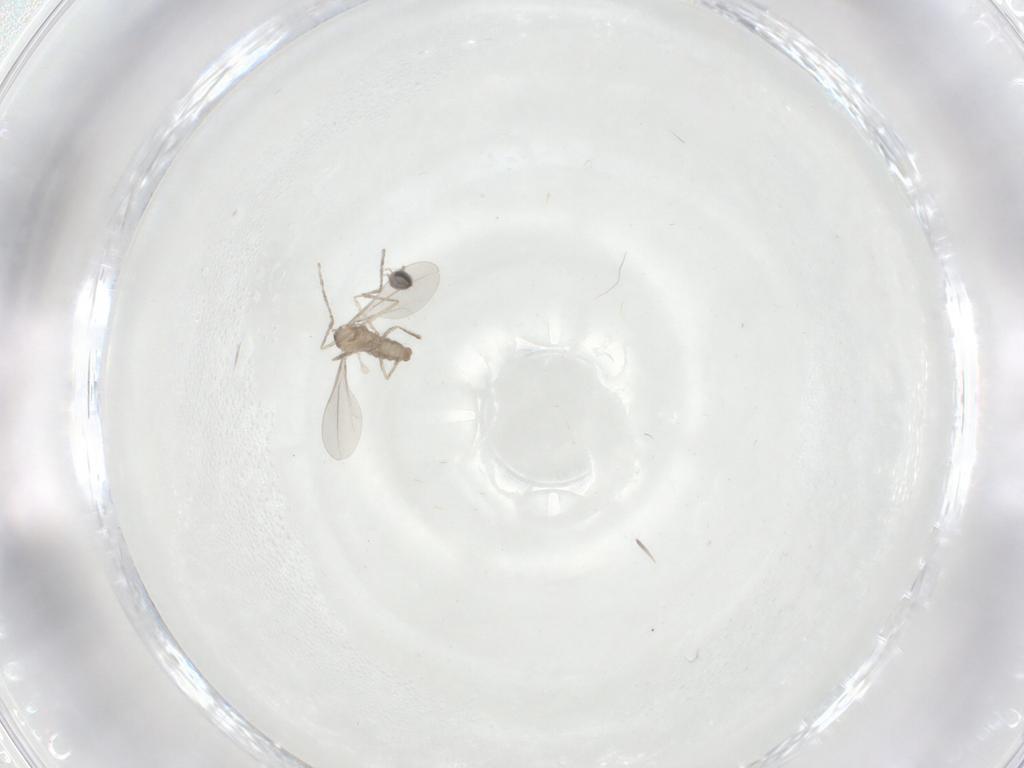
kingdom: Animalia
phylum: Arthropoda
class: Insecta
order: Diptera
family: Cecidomyiidae
